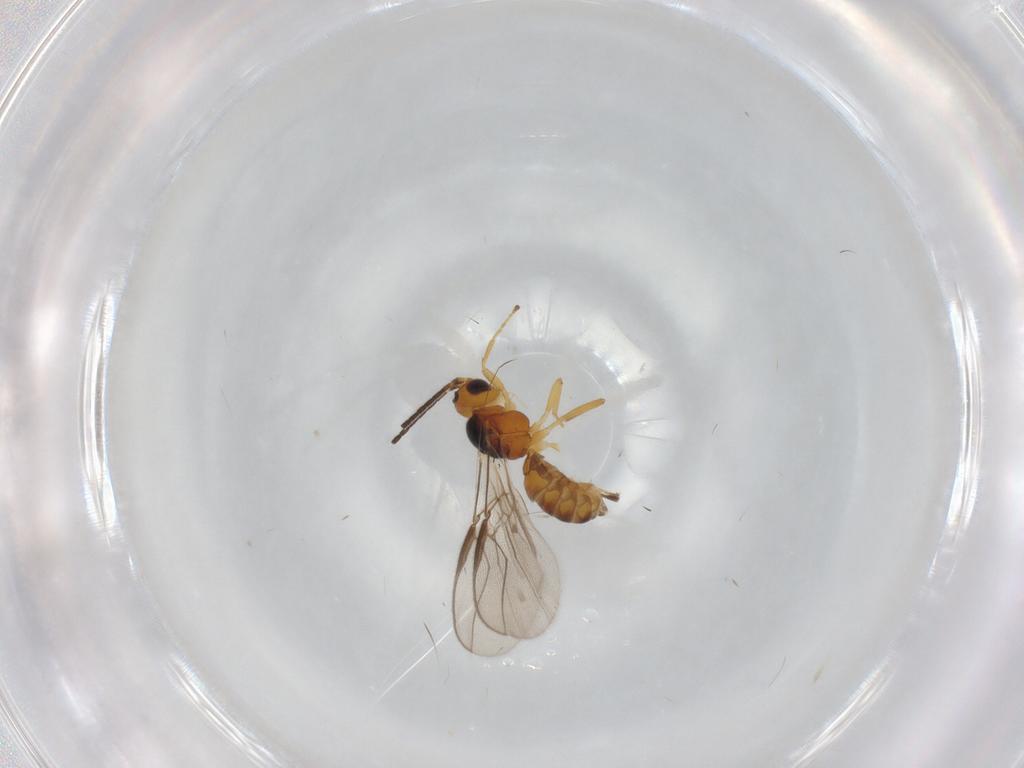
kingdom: Animalia
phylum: Arthropoda
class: Insecta
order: Hymenoptera
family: Braconidae
